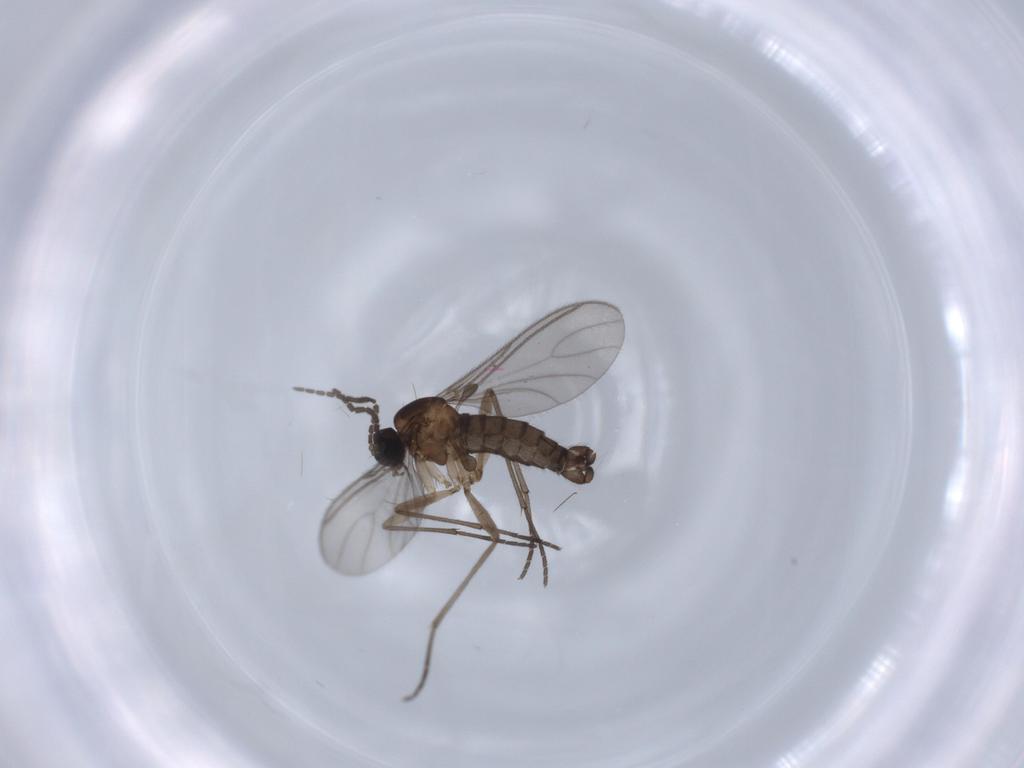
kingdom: Animalia
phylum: Arthropoda
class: Insecta
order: Diptera
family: Sciaridae
